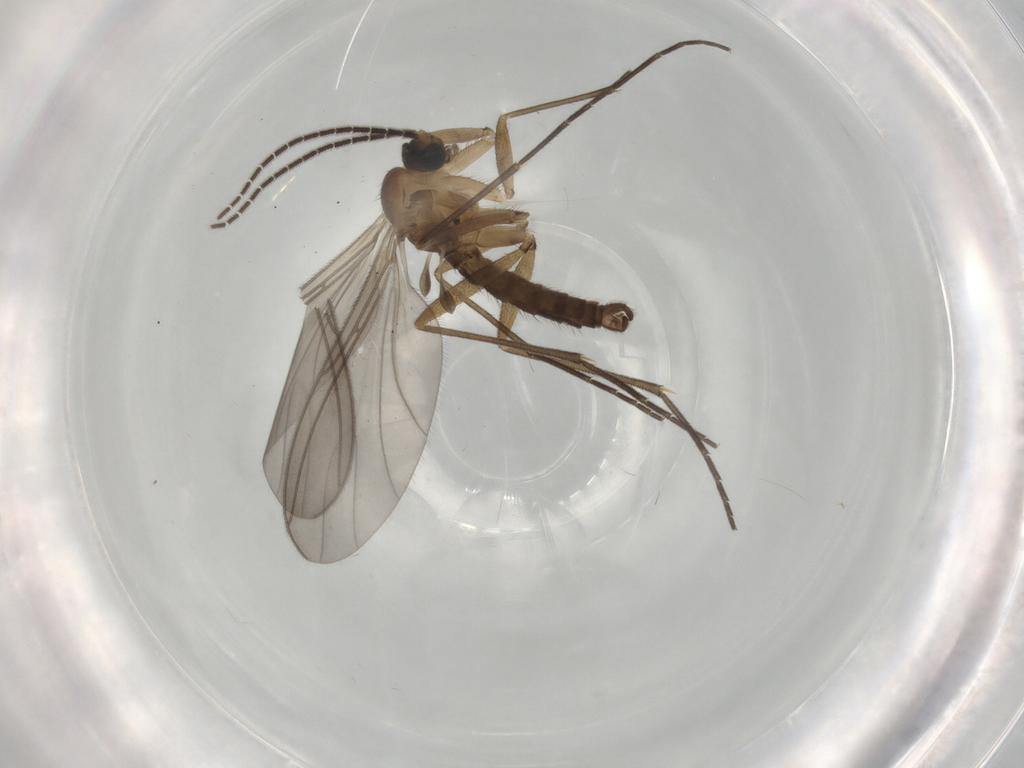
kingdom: Animalia
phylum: Arthropoda
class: Insecta
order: Diptera
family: Sciaridae
